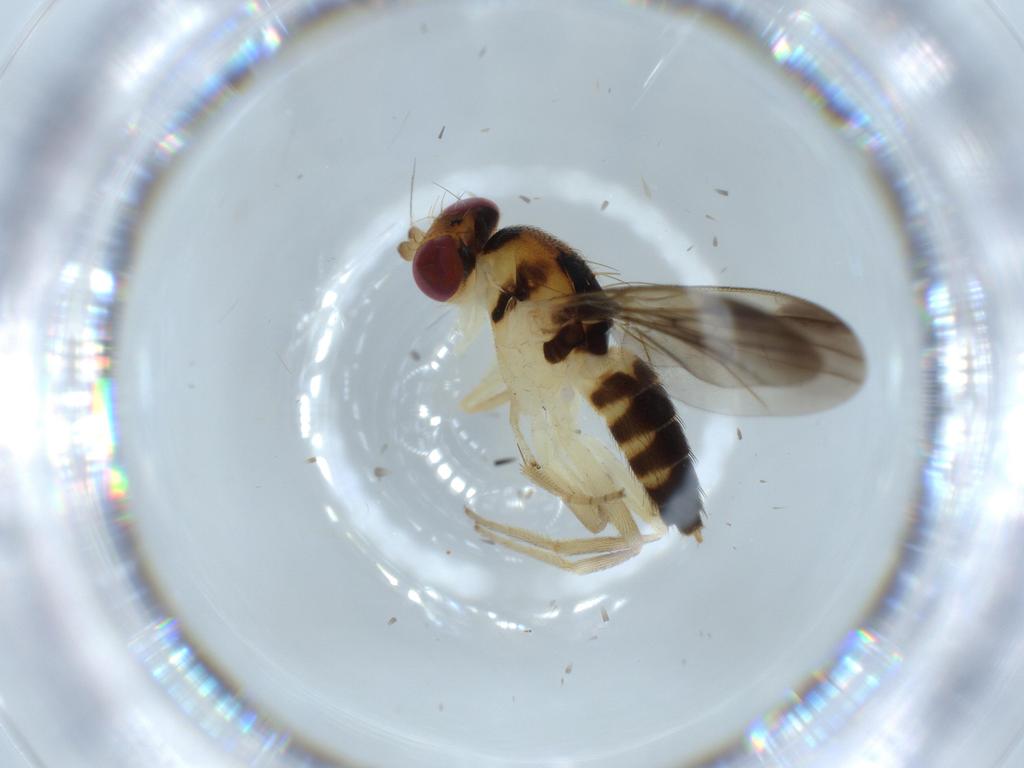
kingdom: Animalia
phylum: Arthropoda
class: Insecta
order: Diptera
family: Clusiidae
